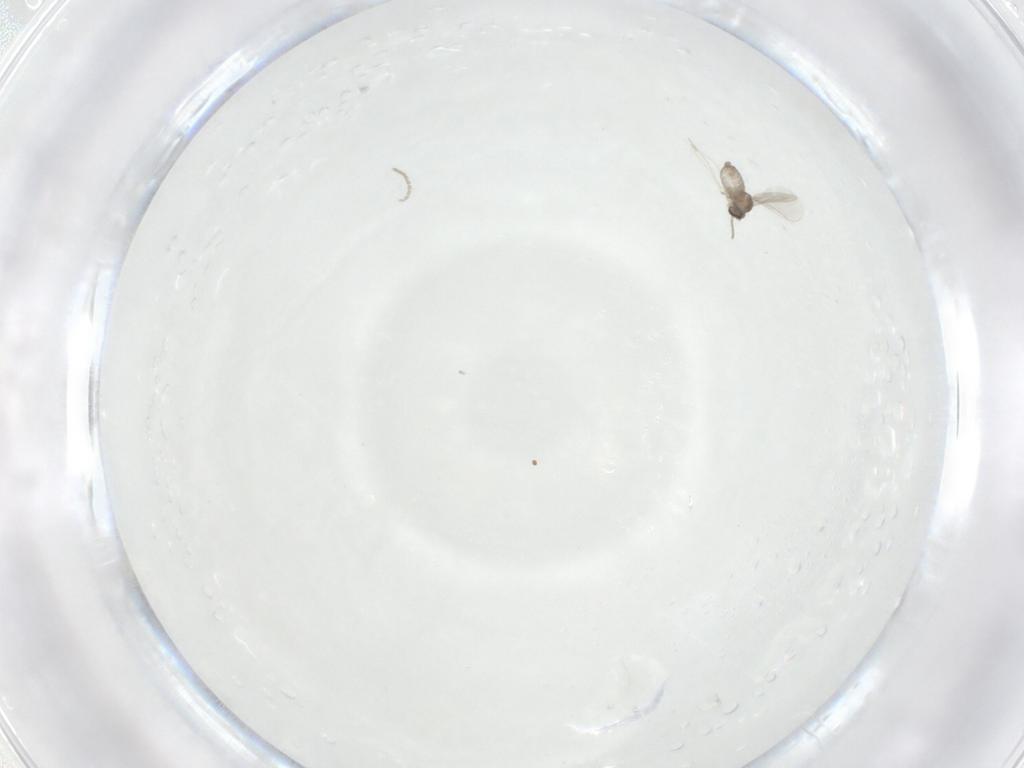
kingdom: Animalia
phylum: Arthropoda
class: Insecta
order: Diptera
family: Cecidomyiidae
